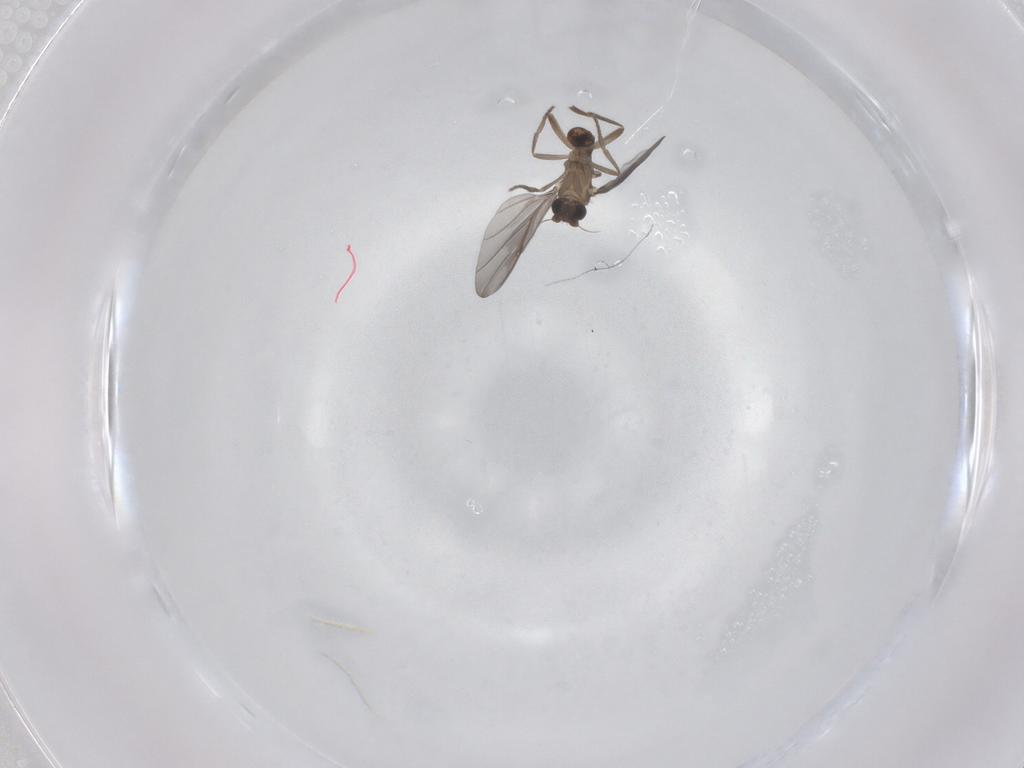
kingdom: Animalia
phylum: Arthropoda
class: Insecta
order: Diptera
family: Phoridae
